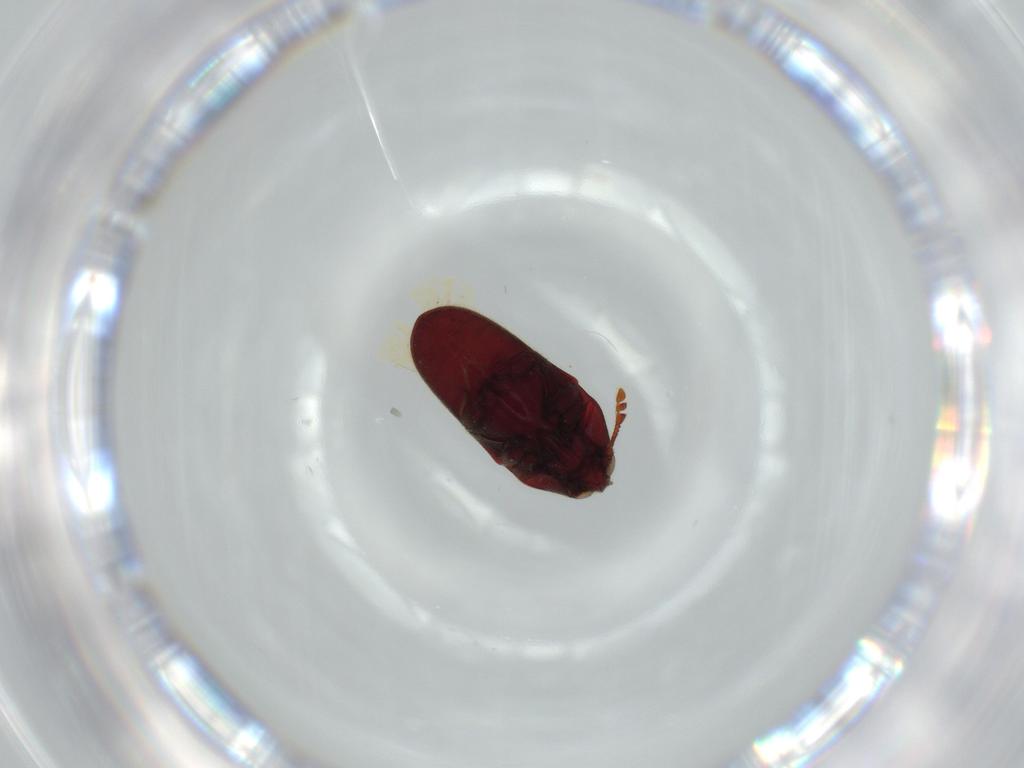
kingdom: Animalia
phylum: Arthropoda
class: Insecta
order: Coleoptera
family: Throscidae
